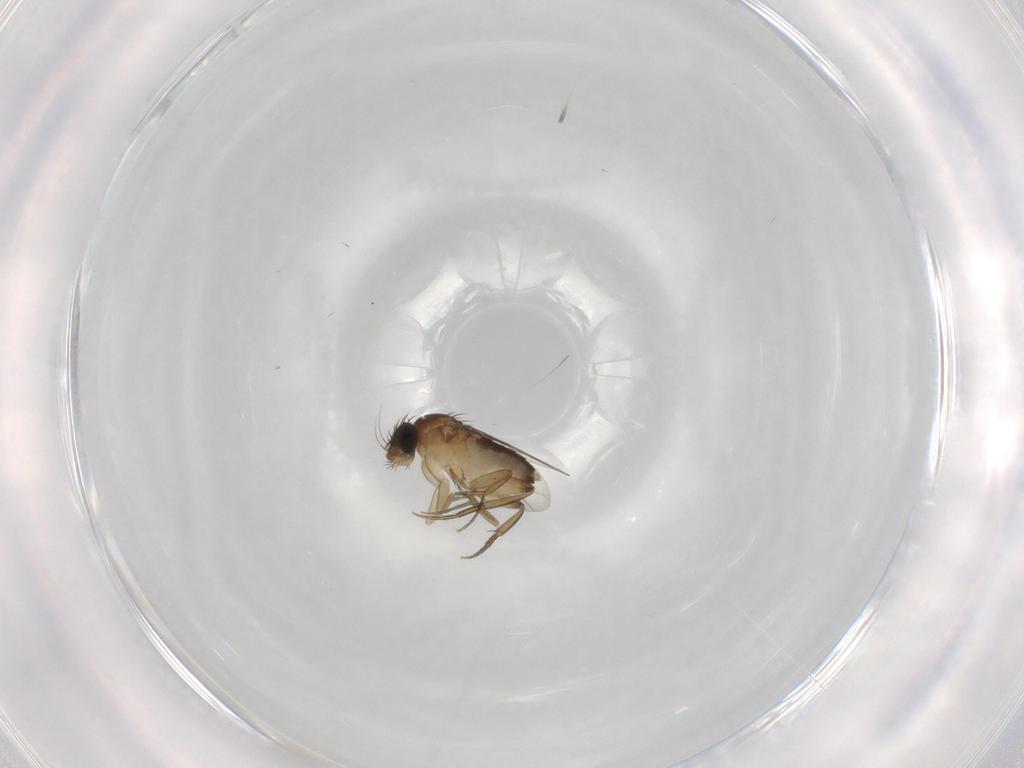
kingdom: Animalia
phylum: Arthropoda
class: Insecta
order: Diptera
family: Phoridae
